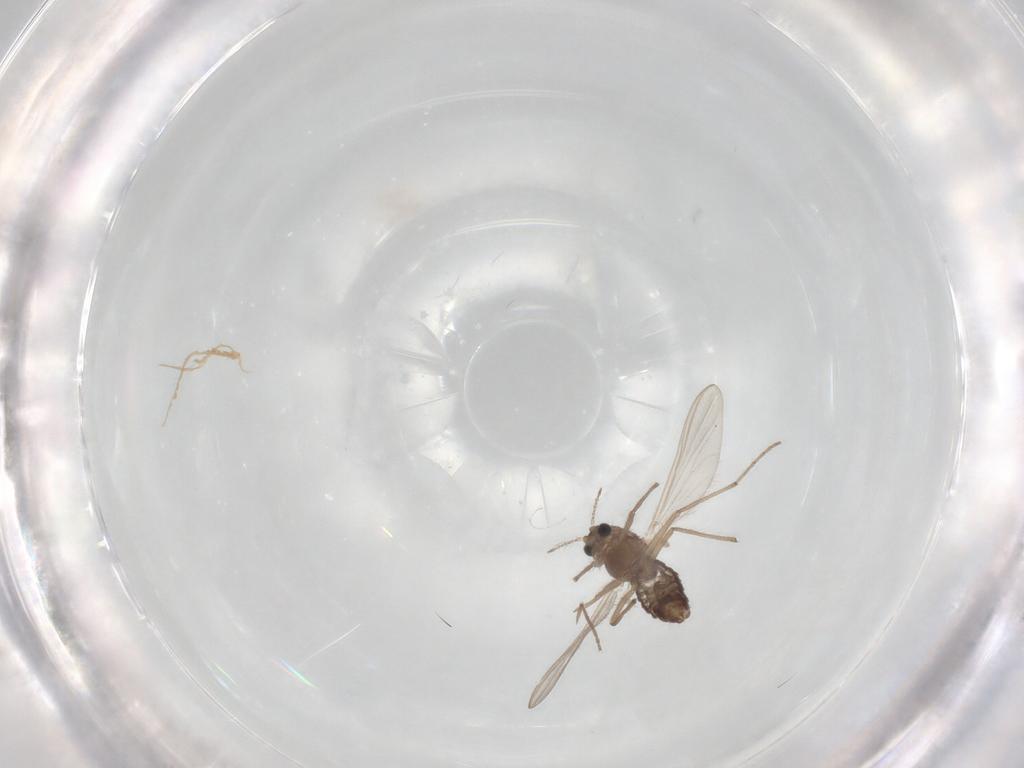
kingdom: Animalia
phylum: Arthropoda
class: Insecta
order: Diptera
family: Chironomidae
